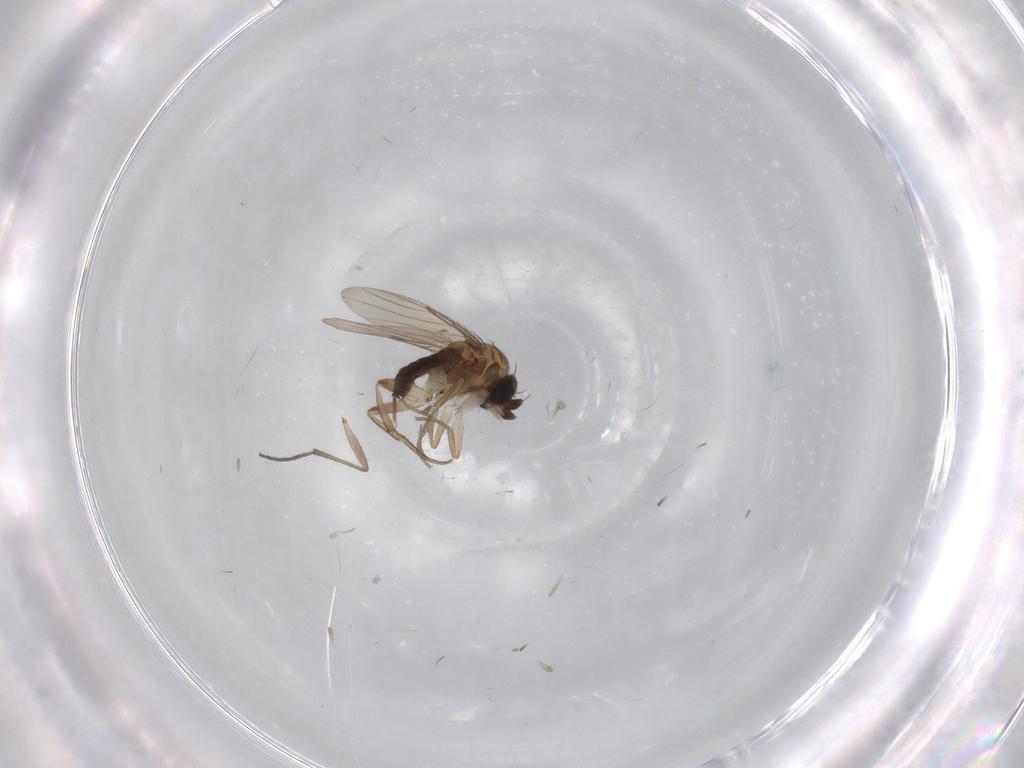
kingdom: Animalia
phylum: Arthropoda
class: Insecta
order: Diptera
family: Phoridae
